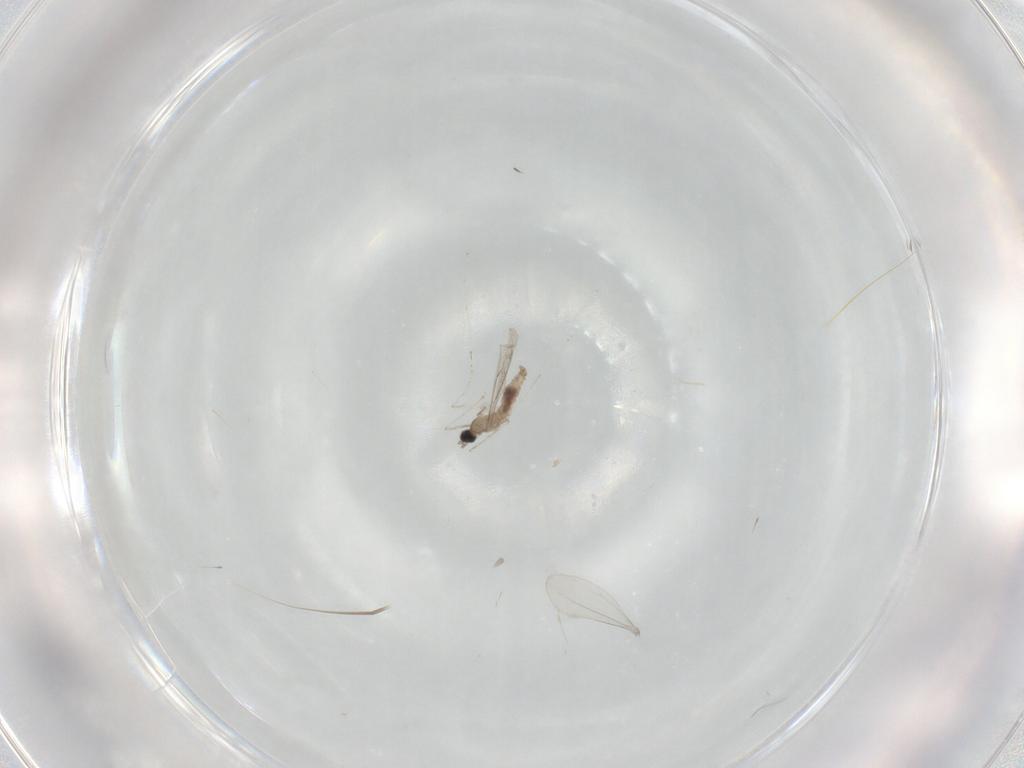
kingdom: Animalia
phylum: Arthropoda
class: Insecta
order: Diptera
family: Cecidomyiidae
